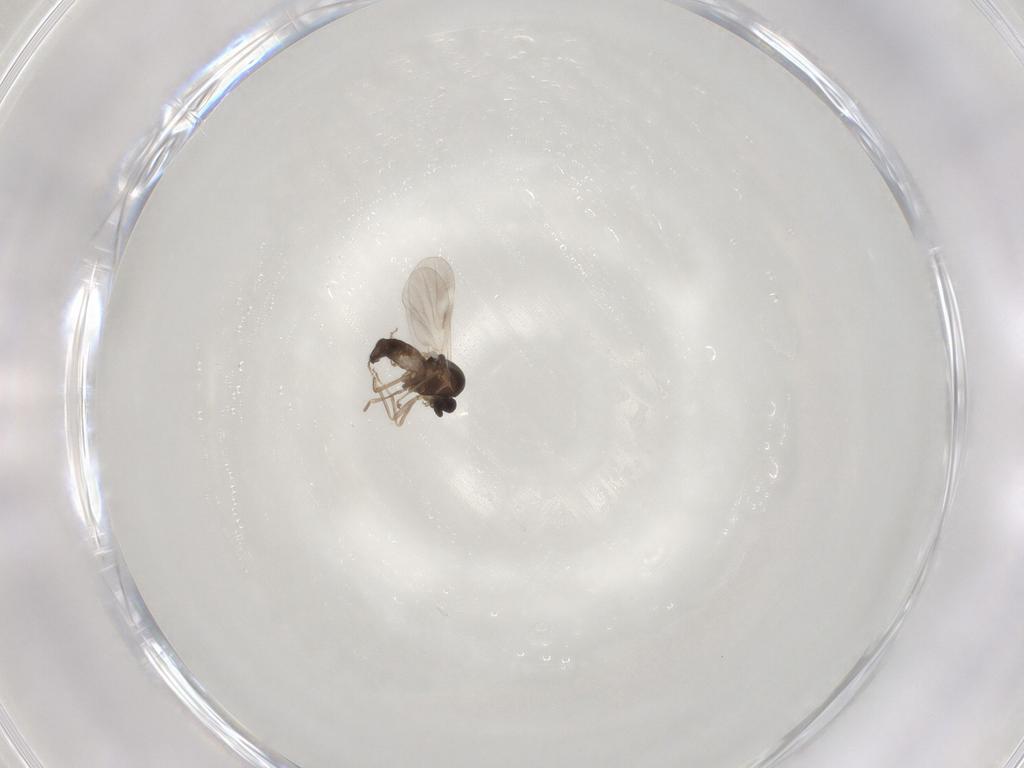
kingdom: Animalia
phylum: Arthropoda
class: Insecta
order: Diptera
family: Ceratopogonidae
